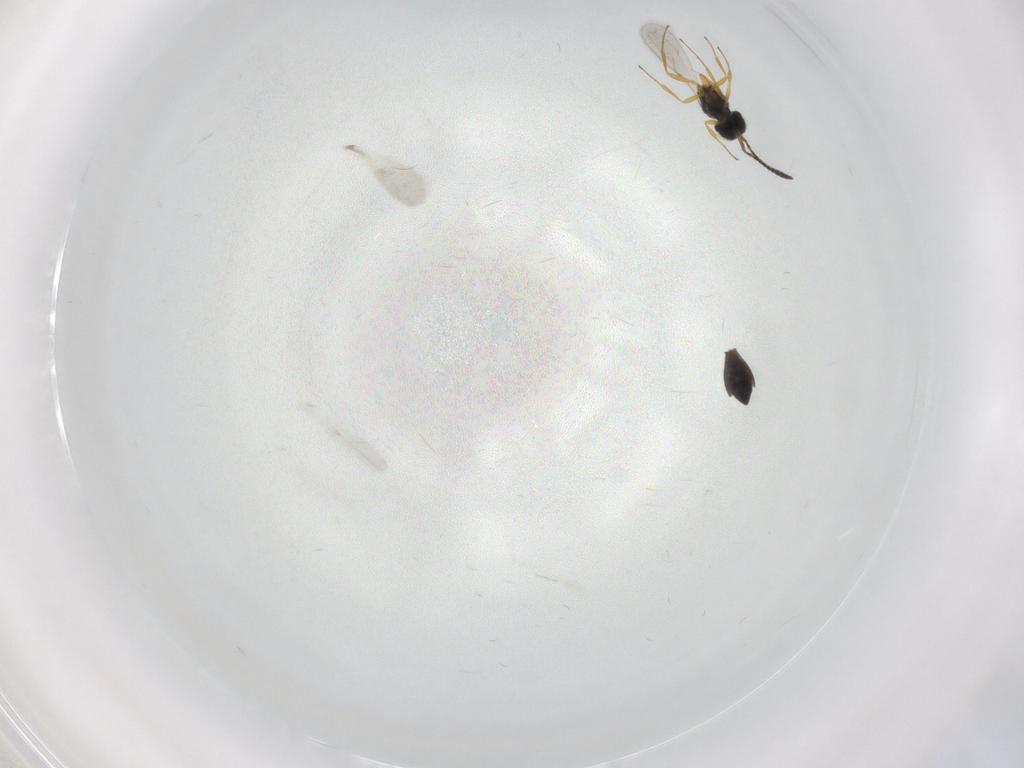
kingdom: Animalia
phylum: Arthropoda
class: Insecta
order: Hymenoptera
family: Scelionidae
